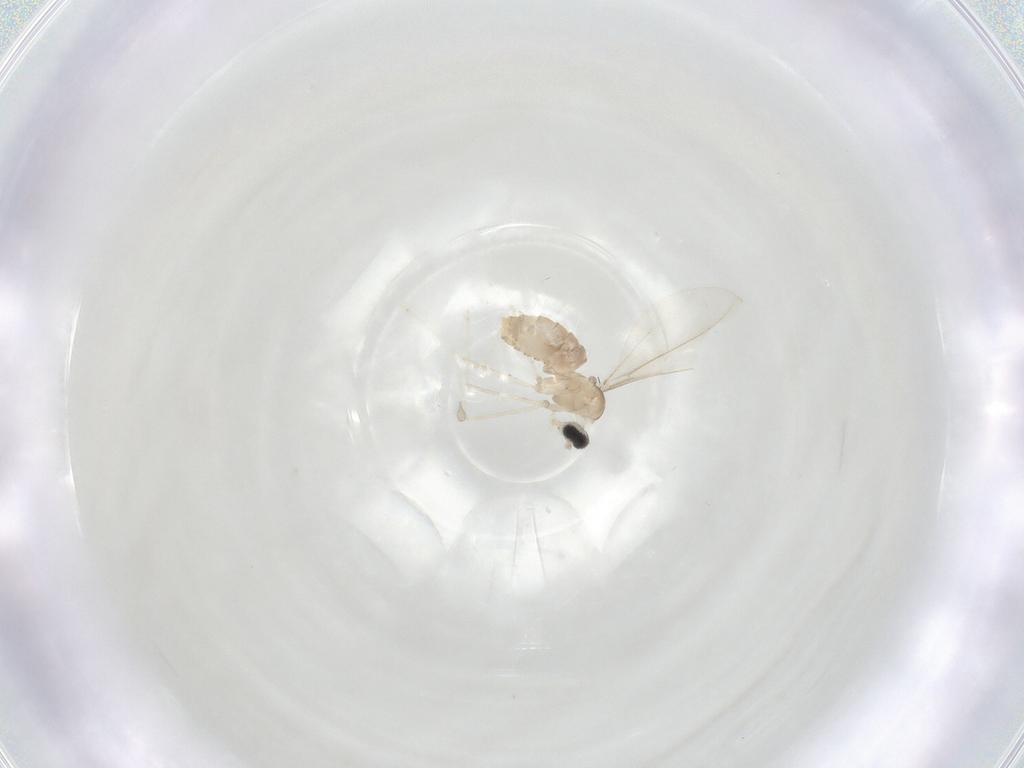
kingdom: Animalia
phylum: Arthropoda
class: Insecta
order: Diptera
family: Cecidomyiidae
